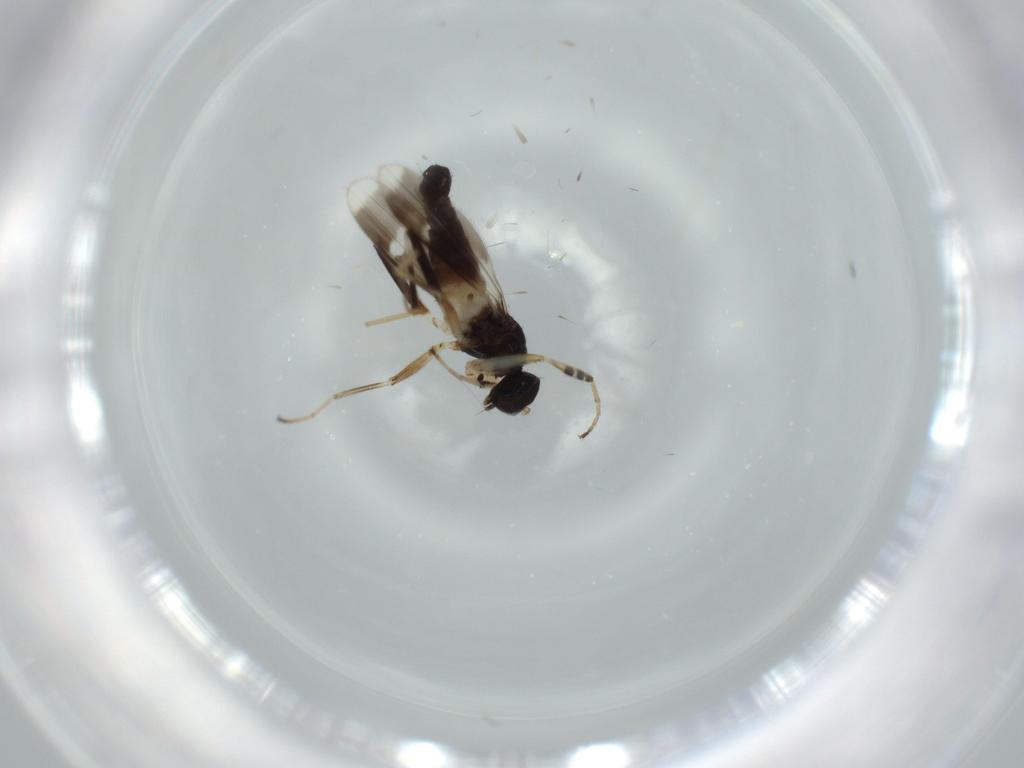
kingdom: Animalia
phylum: Arthropoda
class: Insecta
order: Diptera
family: Hybotidae
